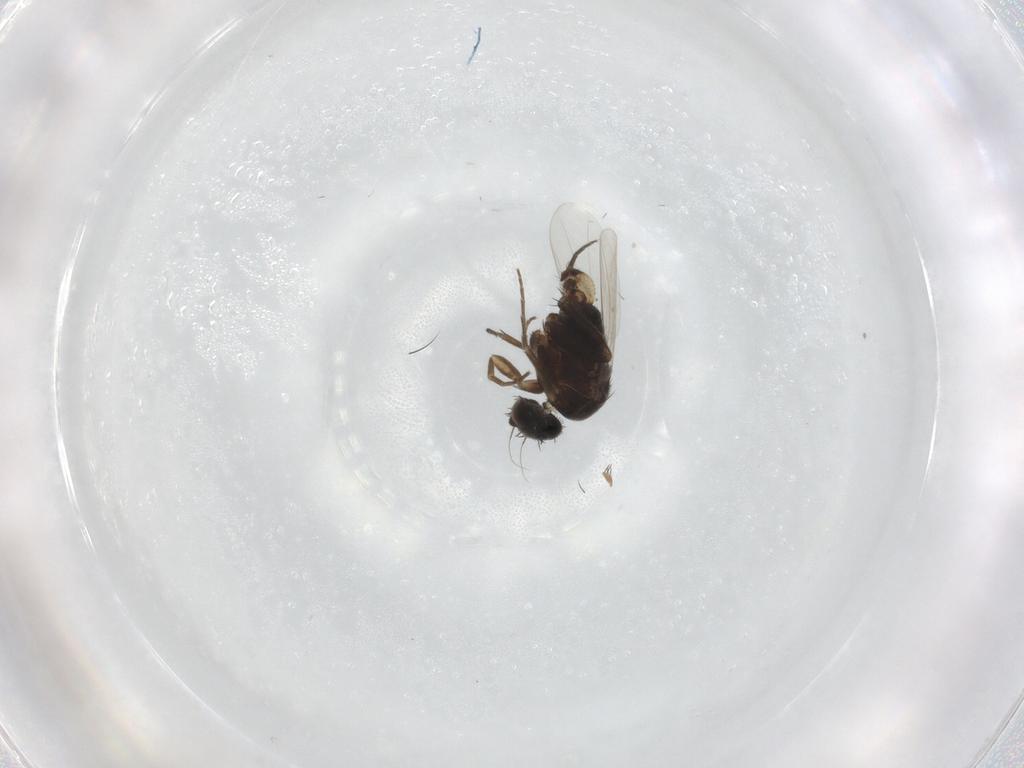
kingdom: Animalia
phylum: Arthropoda
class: Insecta
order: Diptera
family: Phoridae
